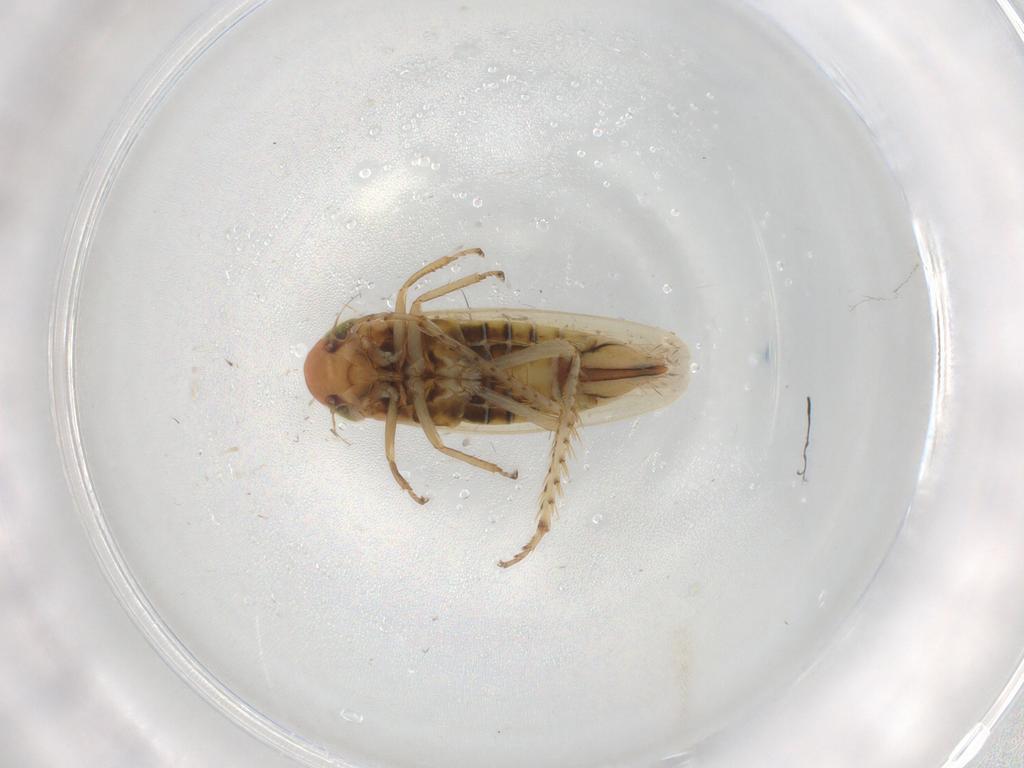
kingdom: Animalia
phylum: Arthropoda
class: Insecta
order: Hemiptera
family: Cicadellidae
